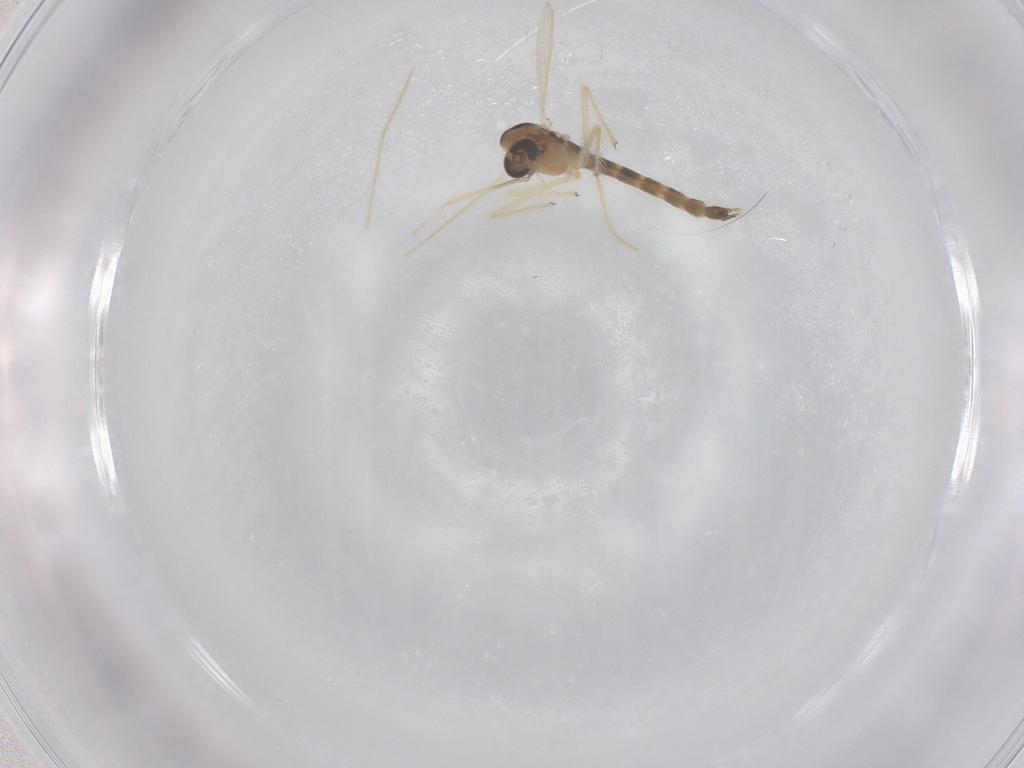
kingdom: Animalia
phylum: Arthropoda
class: Insecta
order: Diptera
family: Chironomidae
